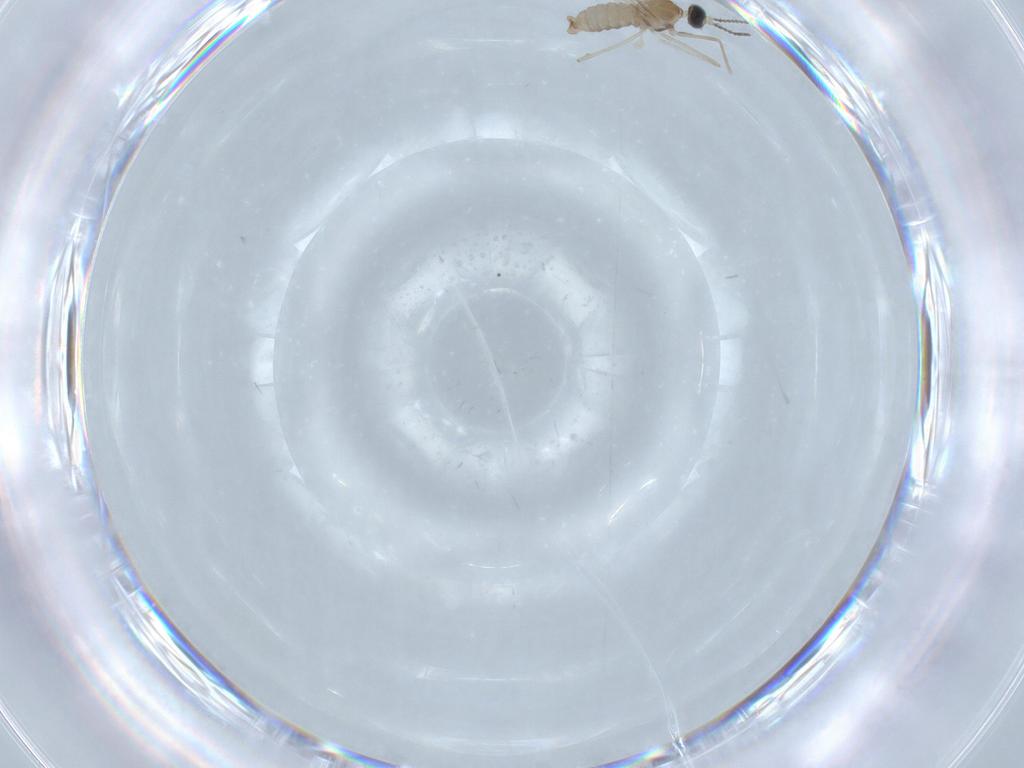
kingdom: Animalia
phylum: Arthropoda
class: Insecta
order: Diptera
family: Cecidomyiidae
